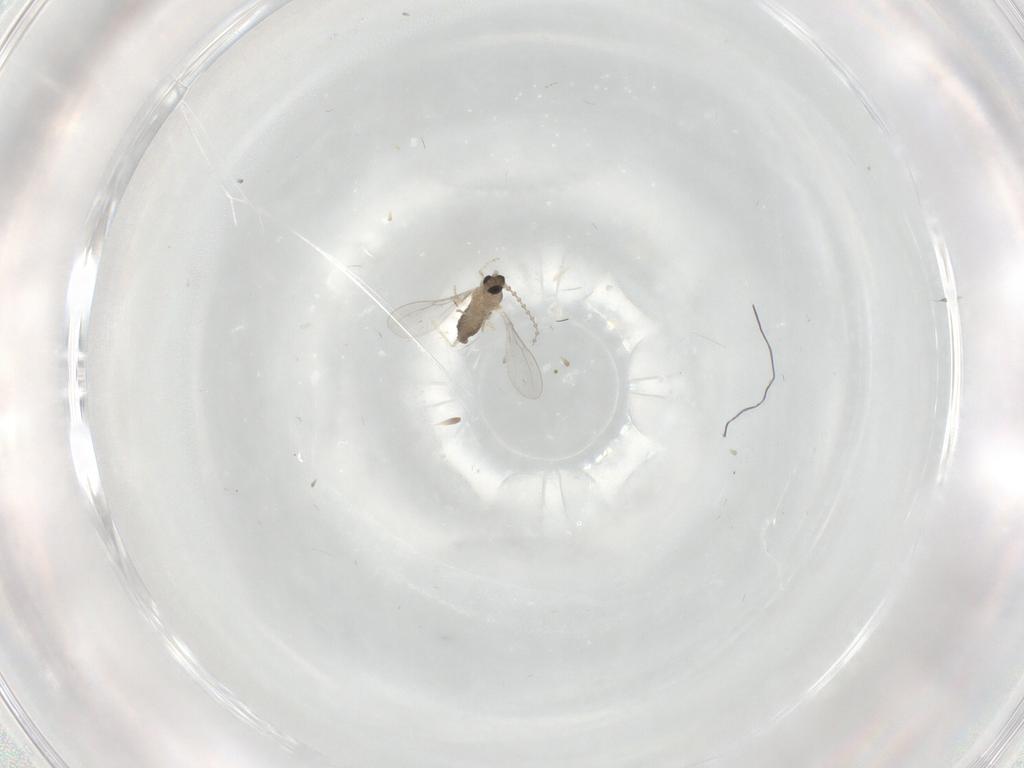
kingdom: Animalia
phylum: Arthropoda
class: Insecta
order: Diptera
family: Cecidomyiidae
